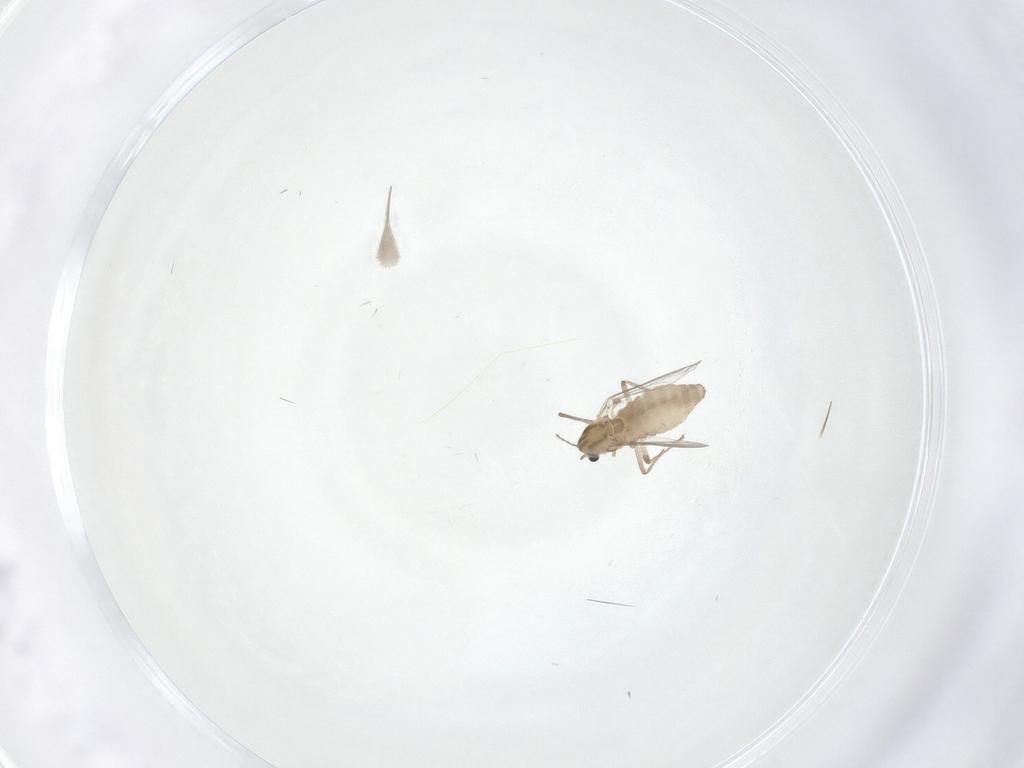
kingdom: Animalia
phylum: Arthropoda
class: Insecta
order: Diptera
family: Chironomidae
